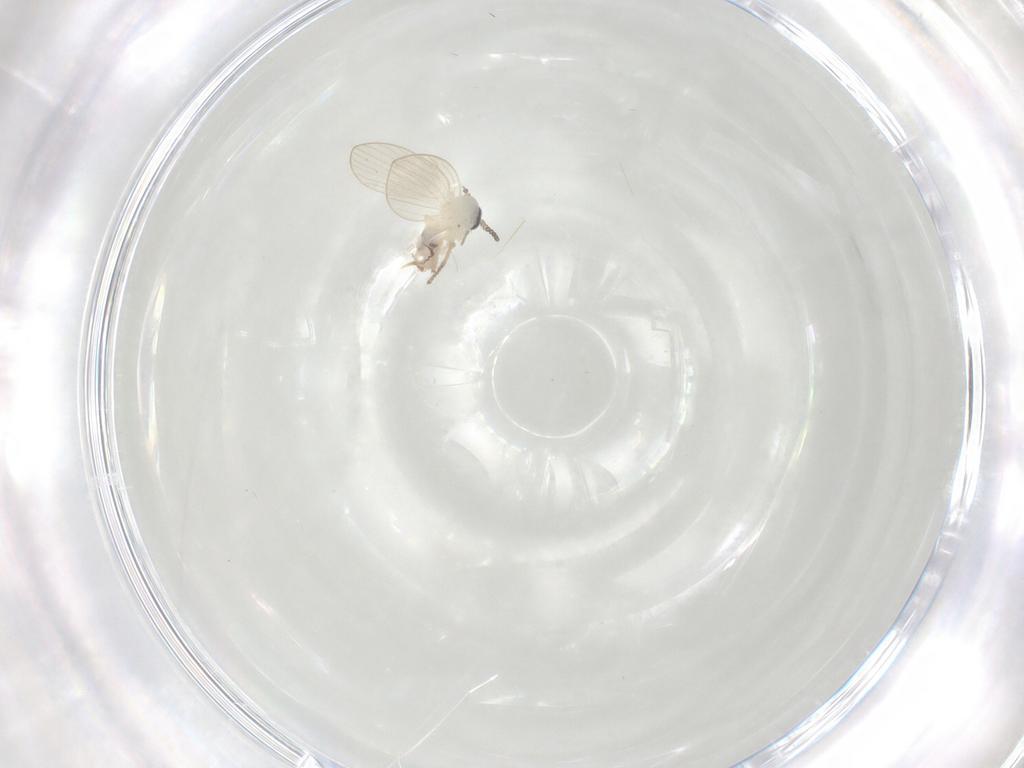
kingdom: Animalia
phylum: Arthropoda
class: Insecta
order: Diptera
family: Psychodidae
